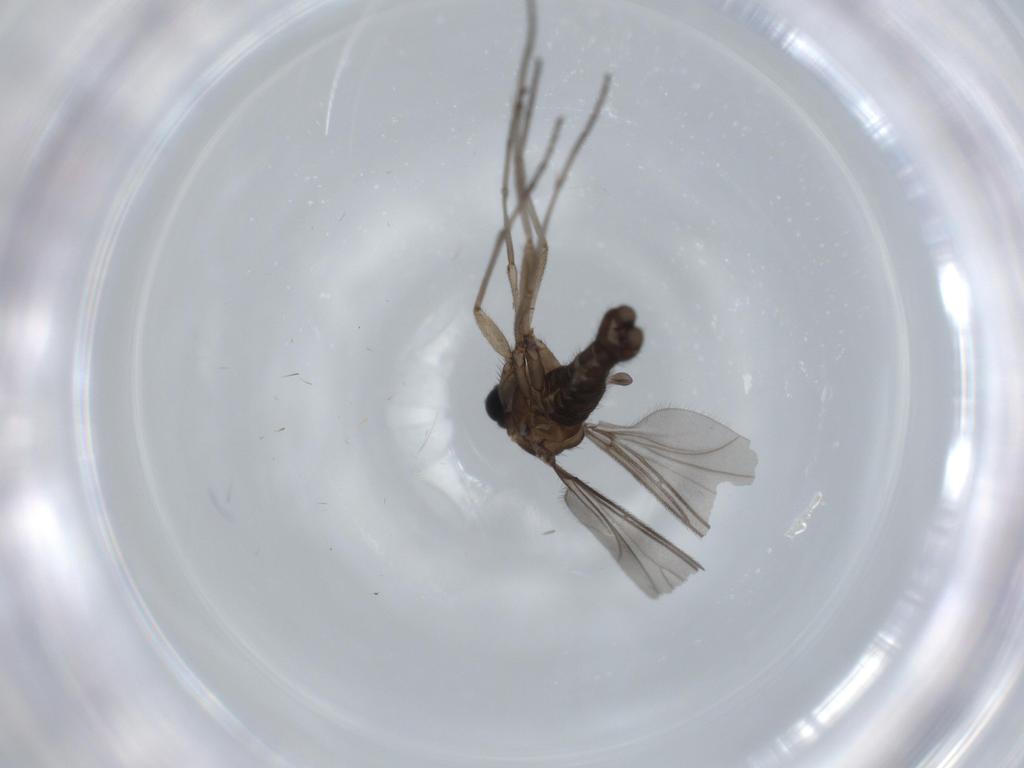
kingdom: Animalia
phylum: Arthropoda
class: Insecta
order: Diptera
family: Sciaridae
